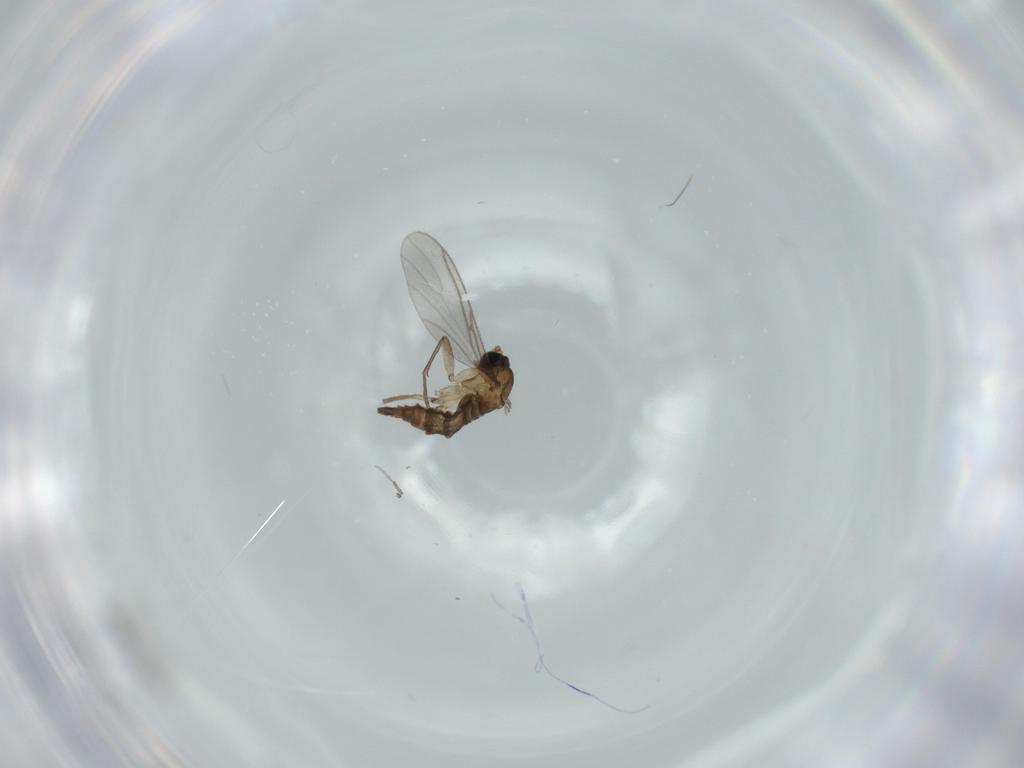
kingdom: Animalia
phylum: Arthropoda
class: Insecta
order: Diptera
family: Sciaridae
